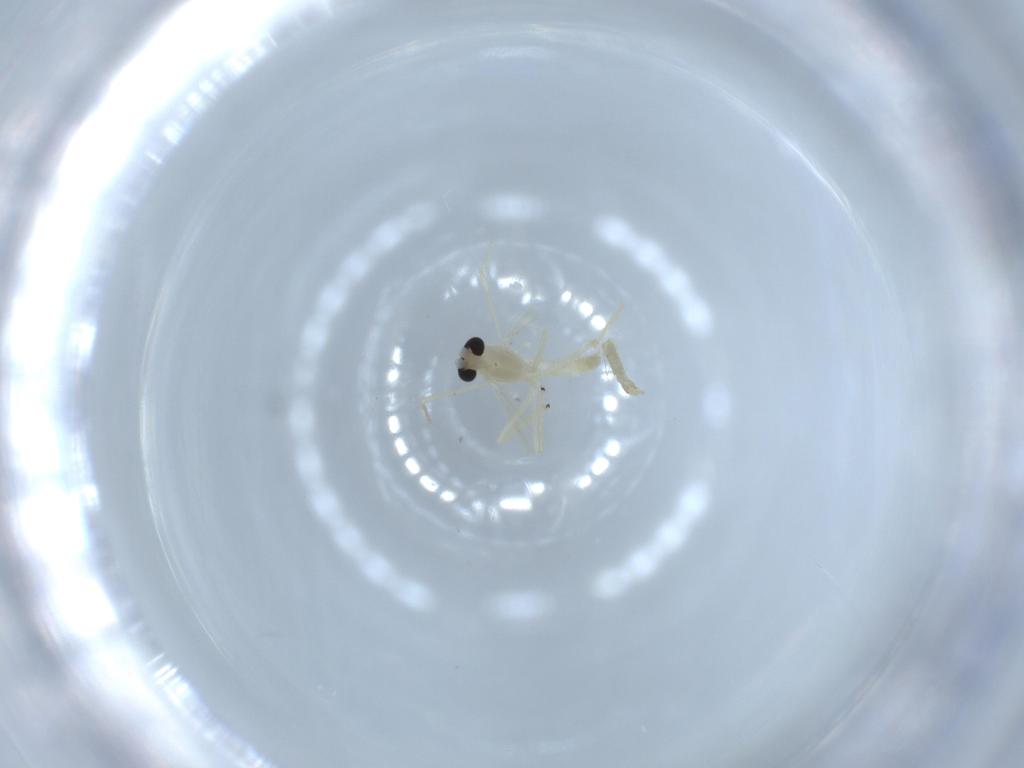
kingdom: Animalia
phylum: Arthropoda
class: Insecta
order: Diptera
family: Chironomidae
